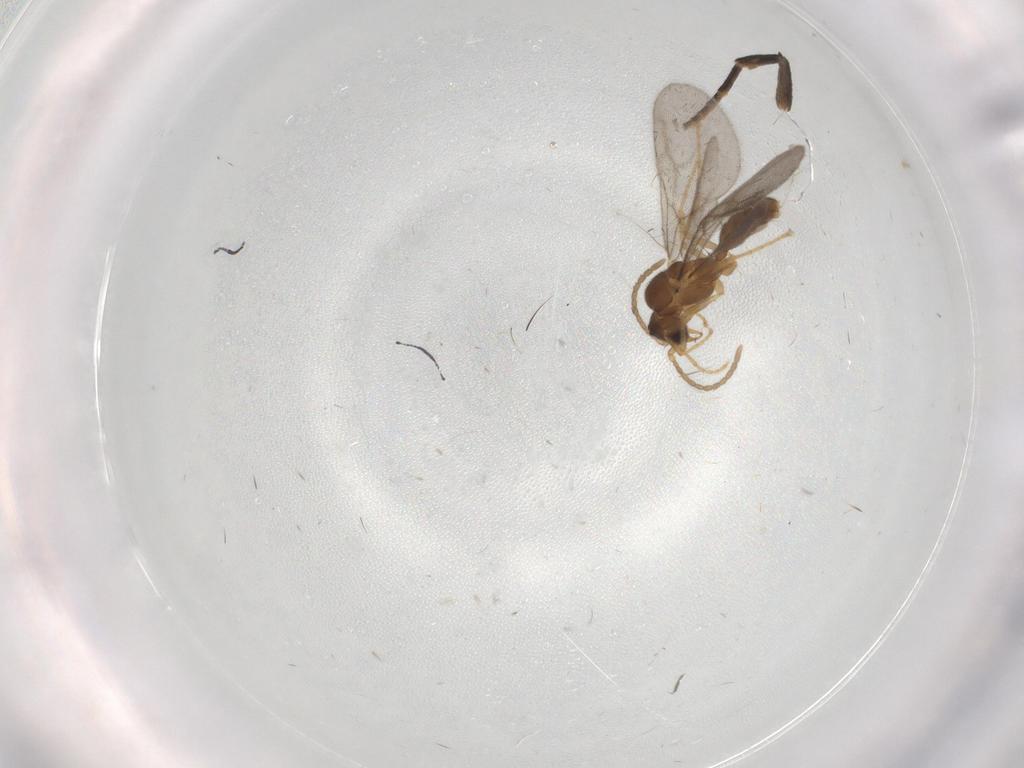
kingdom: Animalia
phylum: Arthropoda
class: Insecta
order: Hymenoptera
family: Formicidae
